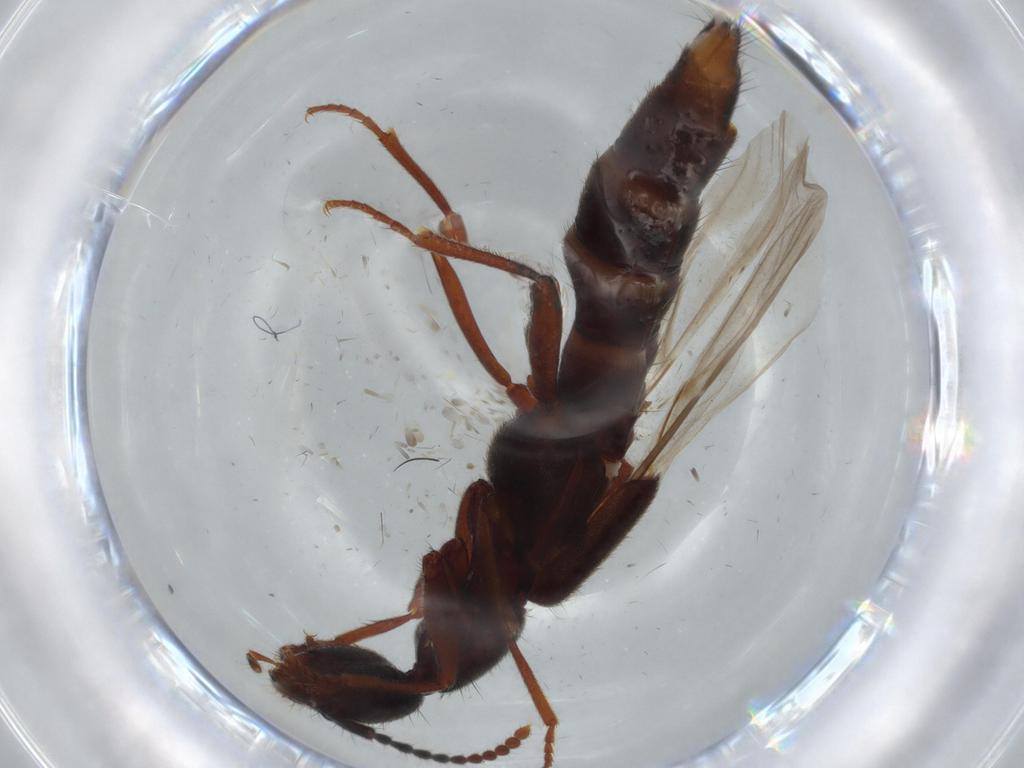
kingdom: Animalia
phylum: Arthropoda
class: Insecta
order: Coleoptera
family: Staphylinidae
